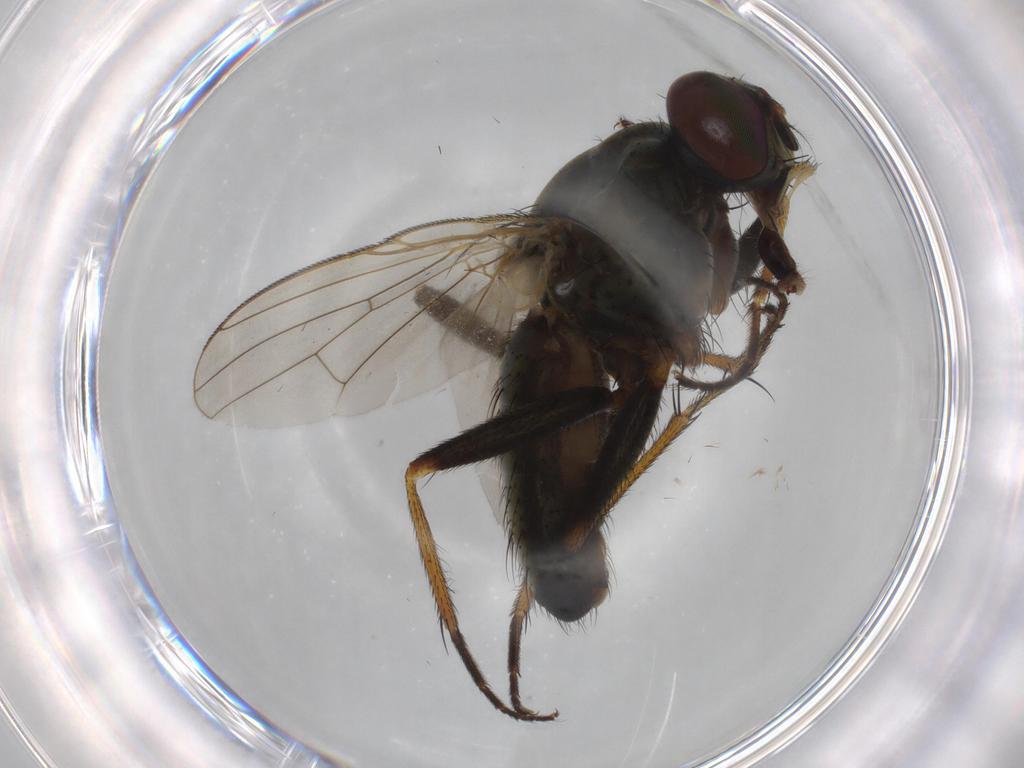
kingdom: Animalia
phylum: Arthropoda
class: Insecta
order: Diptera
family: Muscidae
